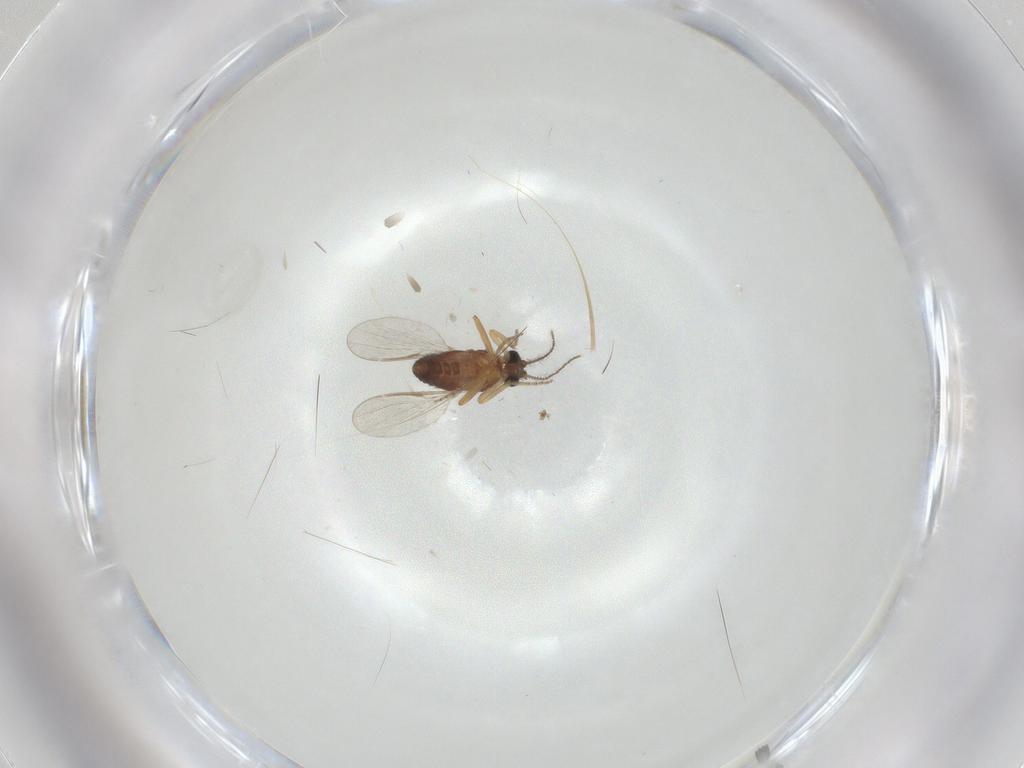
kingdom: Animalia
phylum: Arthropoda
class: Insecta
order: Diptera
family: Ceratopogonidae
